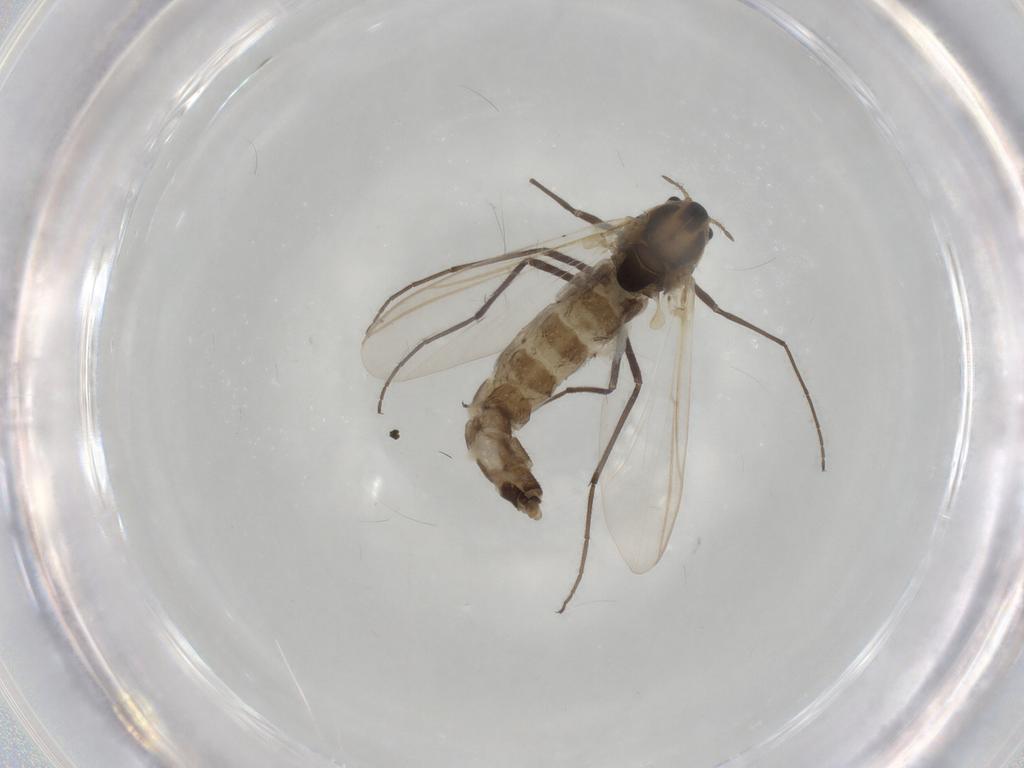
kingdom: Animalia
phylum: Arthropoda
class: Insecta
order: Diptera
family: Chironomidae
